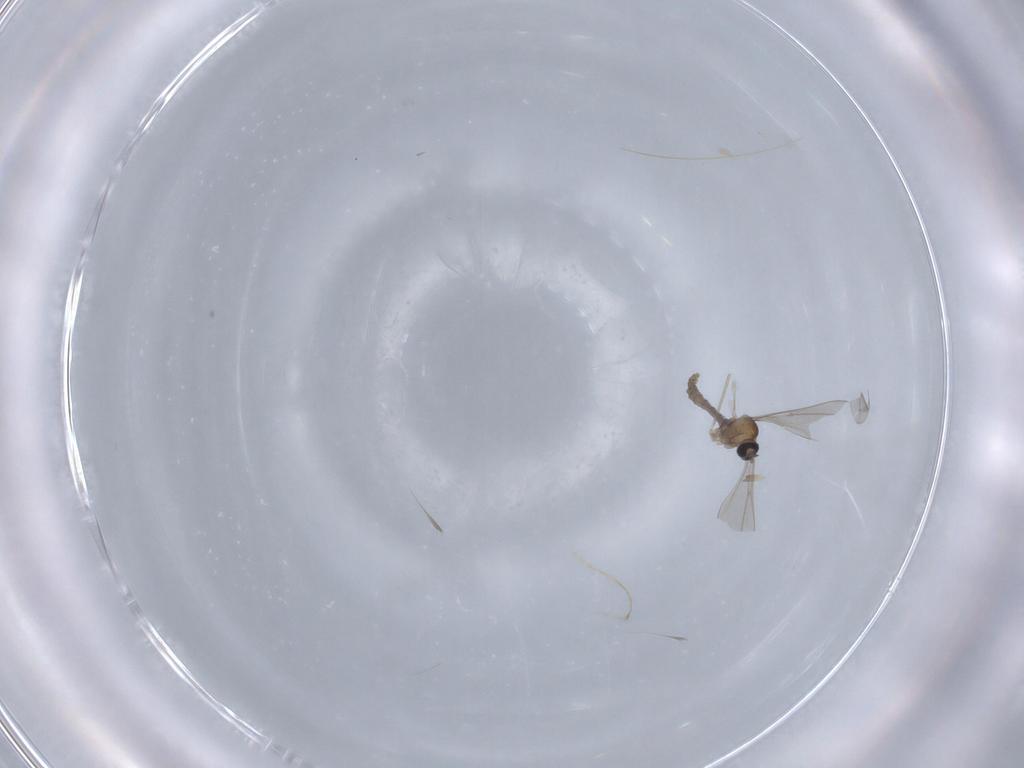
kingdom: Animalia
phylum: Arthropoda
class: Insecta
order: Diptera
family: Cecidomyiidae
